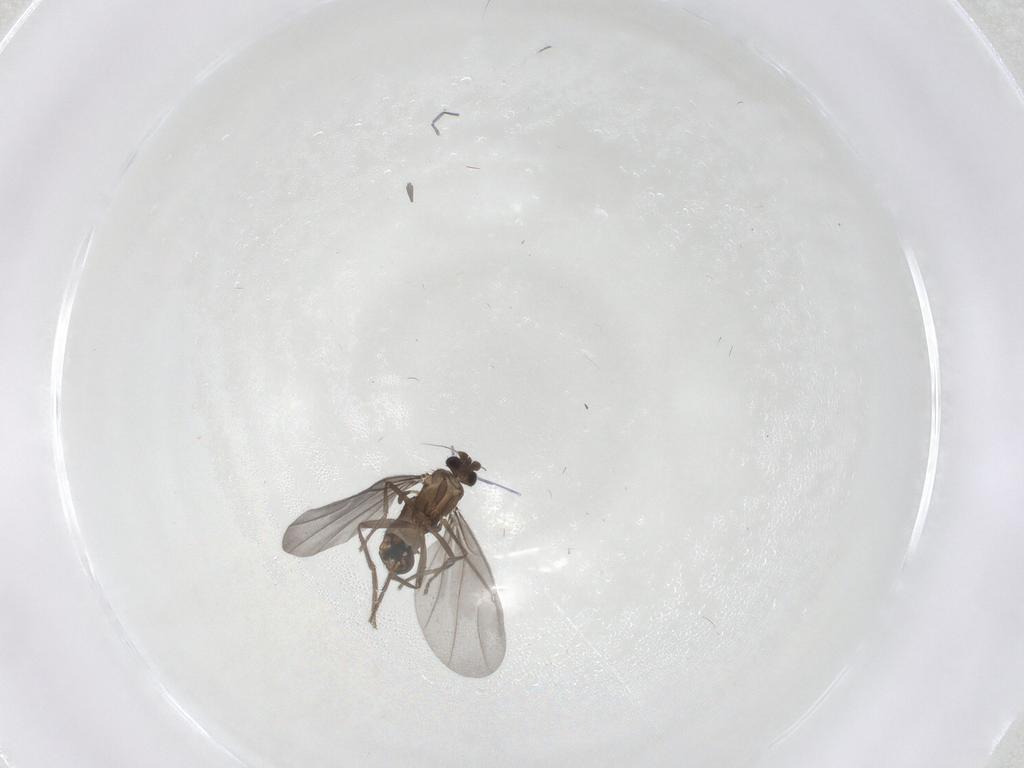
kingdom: Animalia
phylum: Arthropoda
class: Insecta
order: Diptera
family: Phoridae
